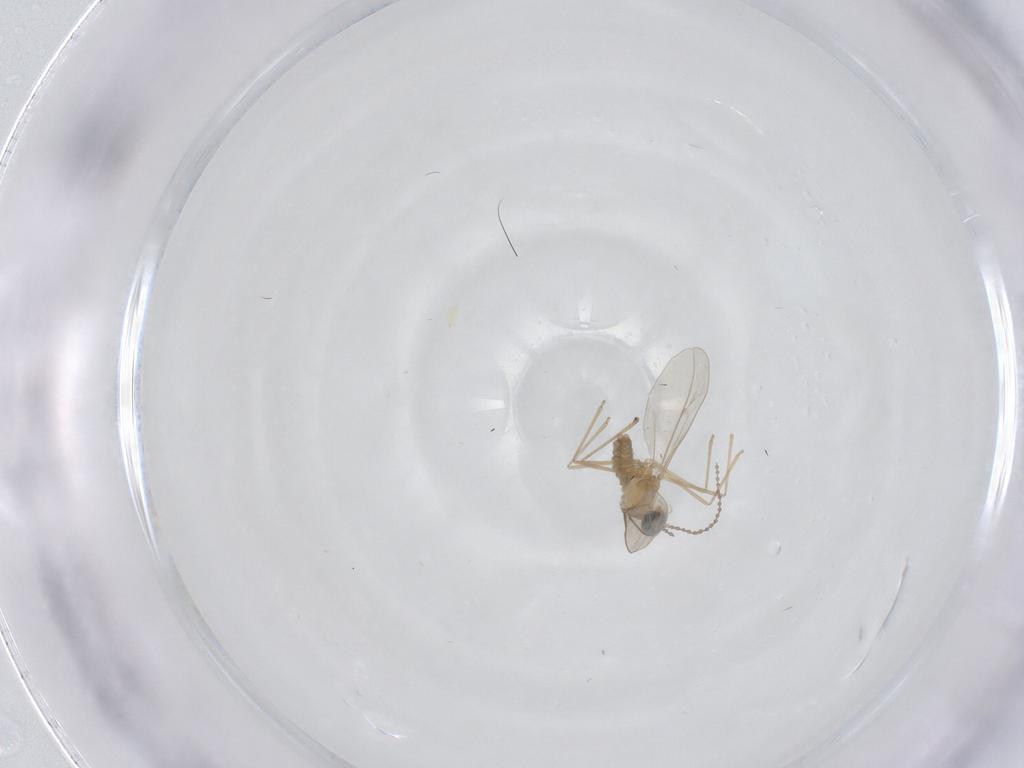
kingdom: Animalia
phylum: Arthropoda
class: Insecta
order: Diptera
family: Cecidomyiidae
